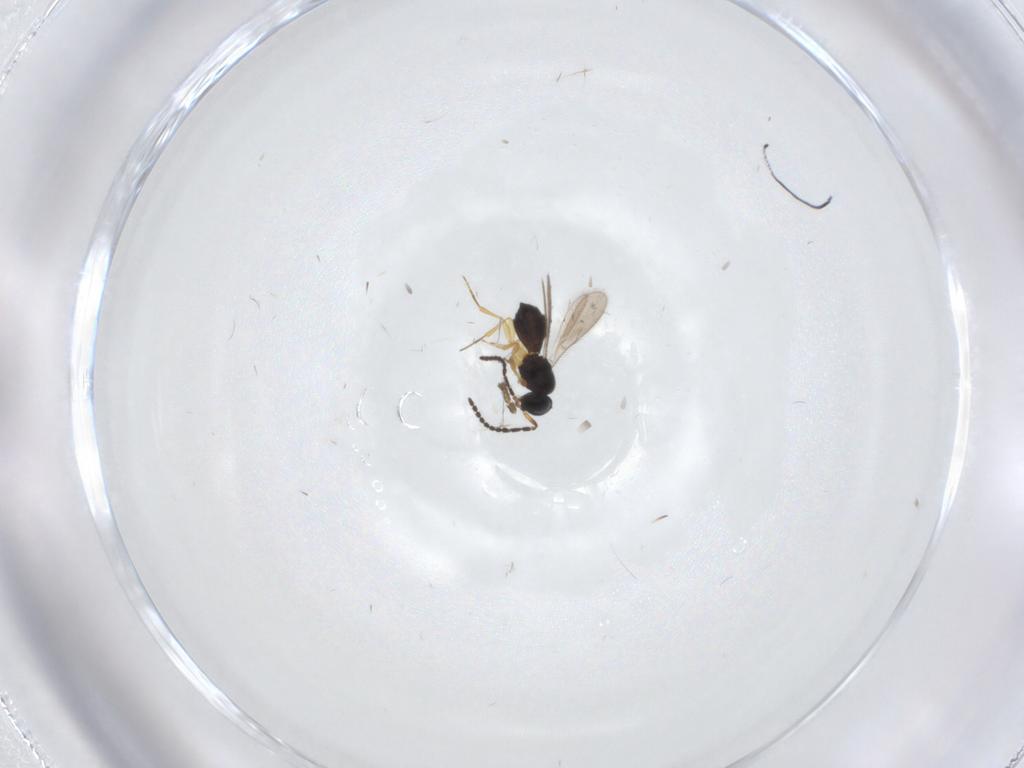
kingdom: Animalia
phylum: Arthropoda
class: Insecta
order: Hymenoptera
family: Scelionidae
